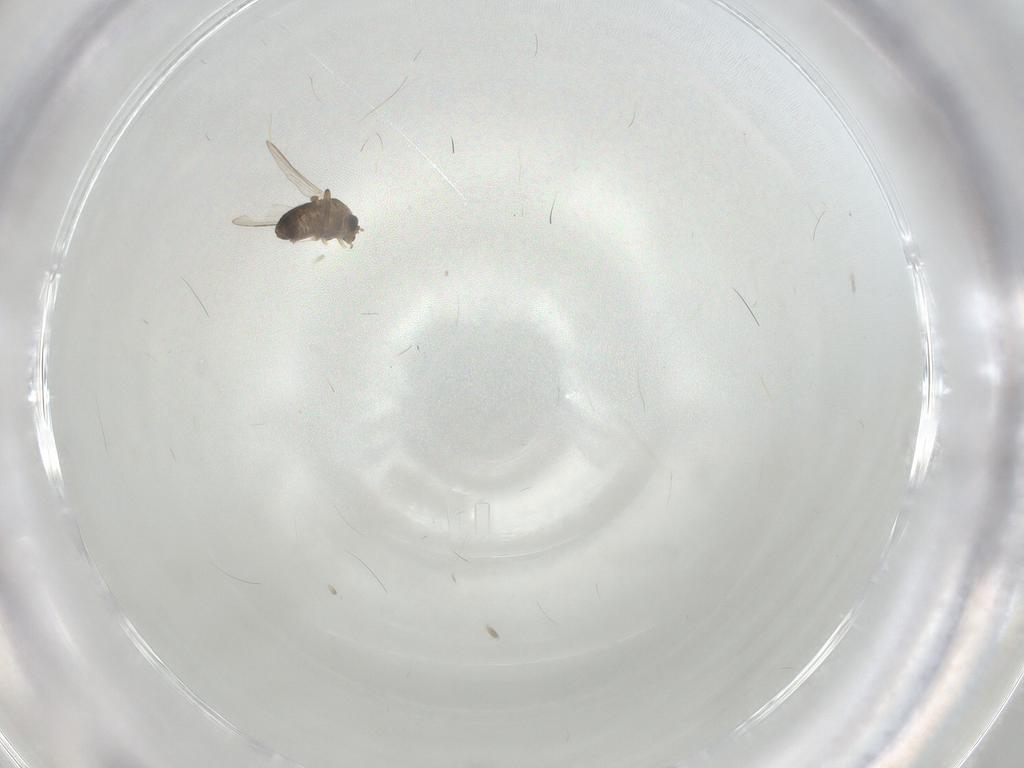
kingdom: Animalia
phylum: Arthropoda
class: Insecta
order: Diptera
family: Chironomidae
